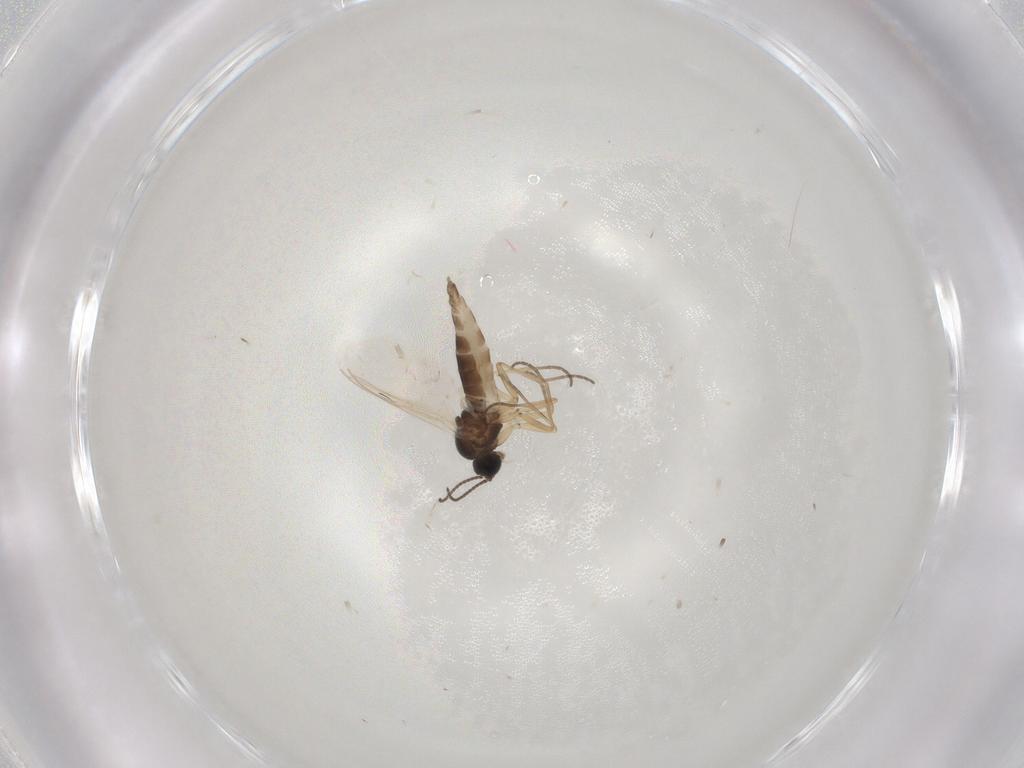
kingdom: Animalia
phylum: Arthropoda
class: Insecta
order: Diptera
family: Sciaridae
